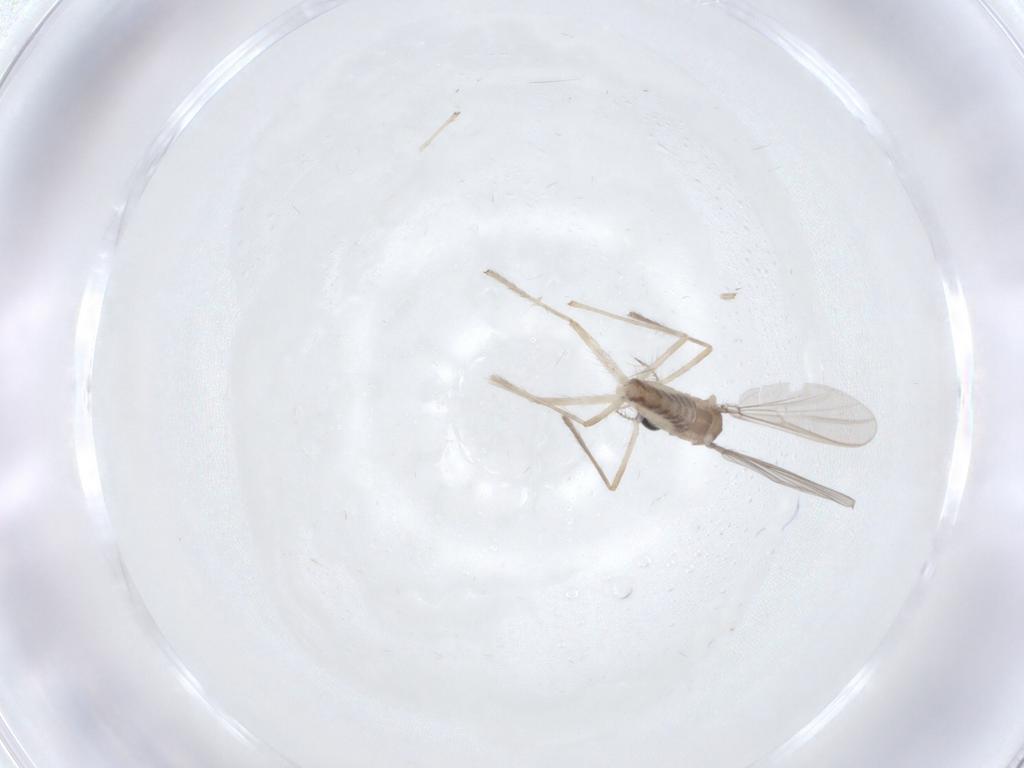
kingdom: Animalia
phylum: Arthropoda
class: Insecta
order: Diptera
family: Chironomidae
